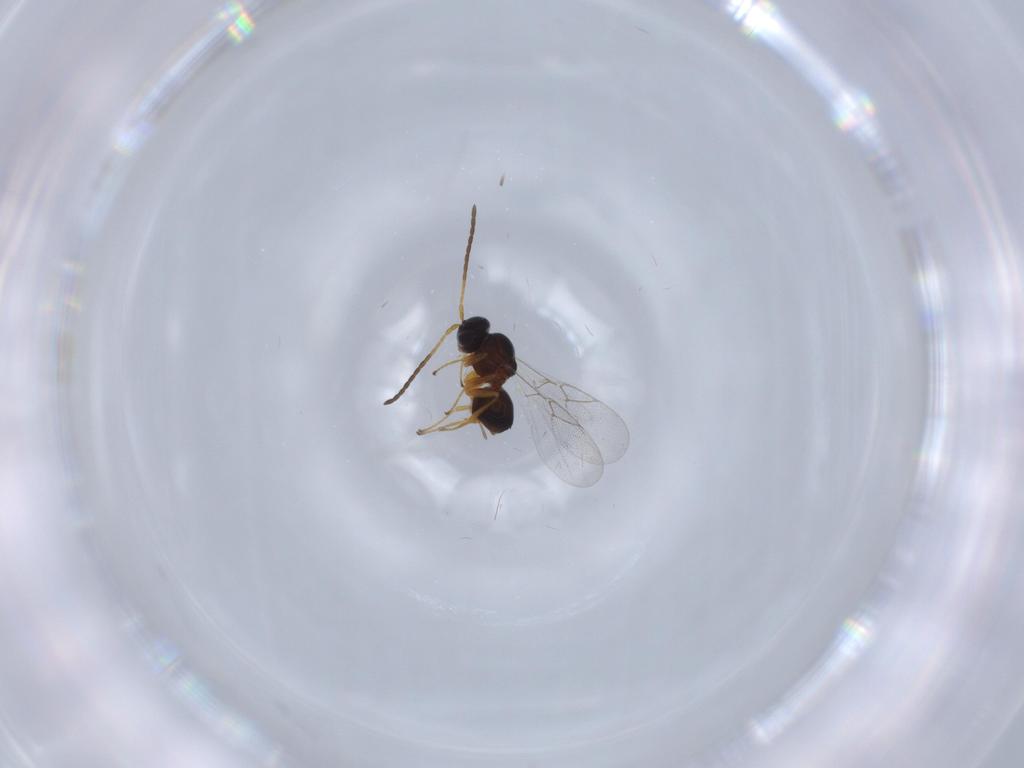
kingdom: Animalia
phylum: Arthropoda
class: Insecta
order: Hymenoptera
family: Figitidae
